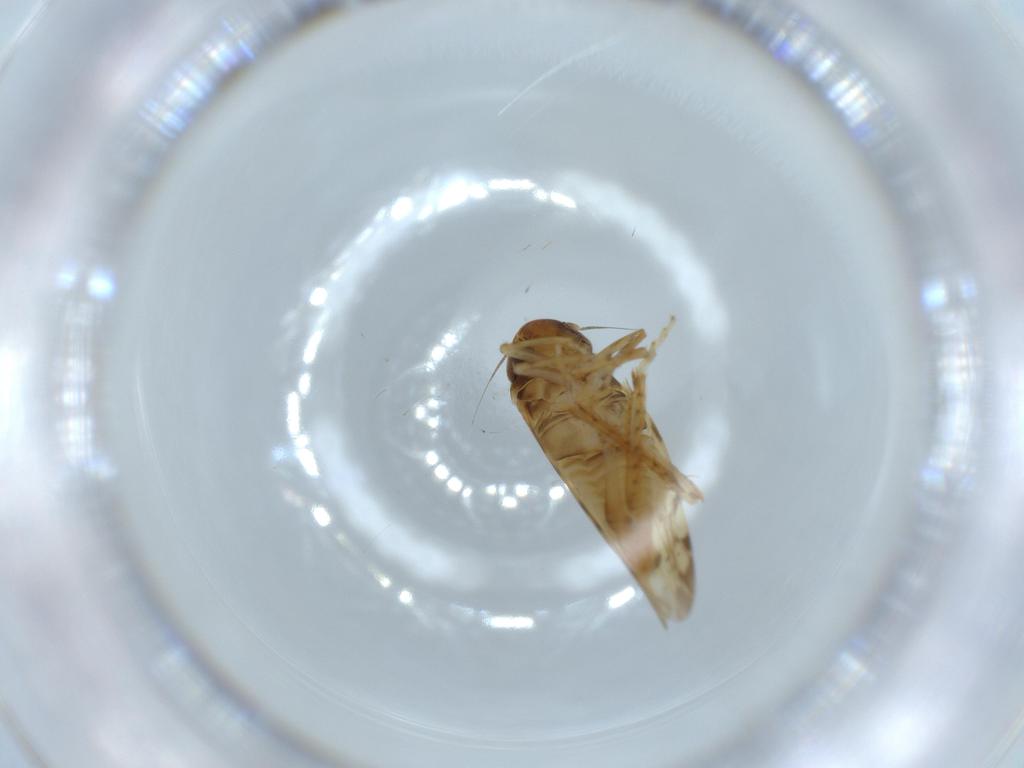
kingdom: Animalia
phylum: Arthropoda
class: Insecta
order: Hemiptera
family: Cicadellidae
